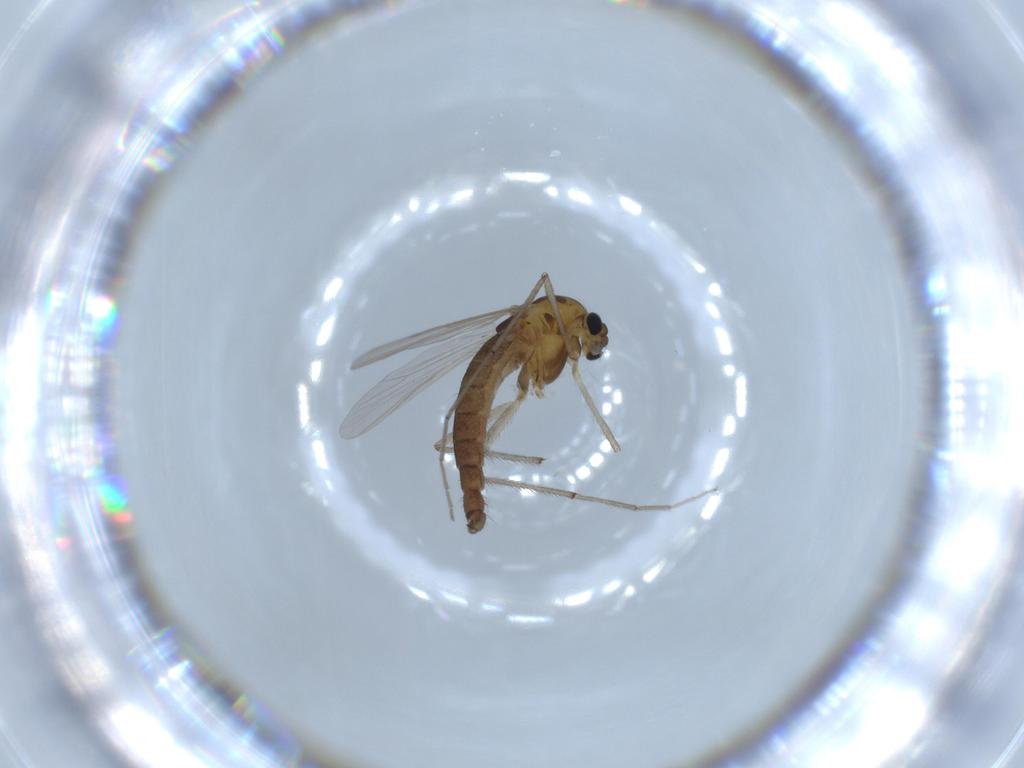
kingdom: Animalia
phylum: Arthropoda
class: Insecta
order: Diptera
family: Chironomidae
